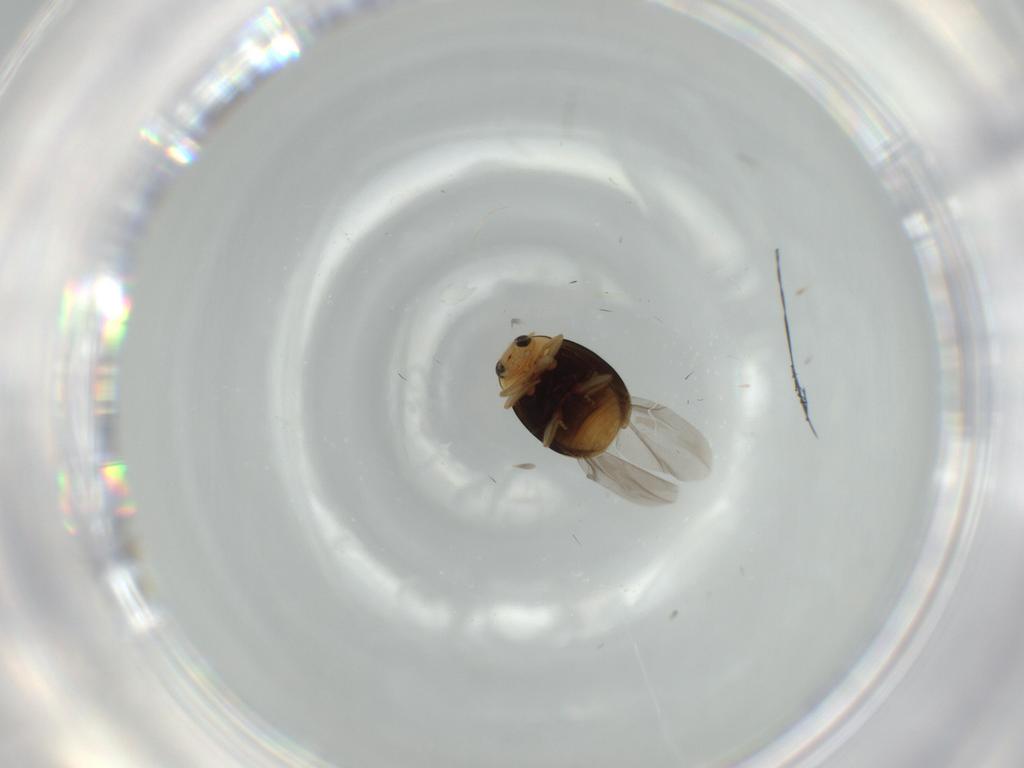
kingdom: Animalia
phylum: Arthropoda
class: Insecta
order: Coleoptera
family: Coccinellidae
